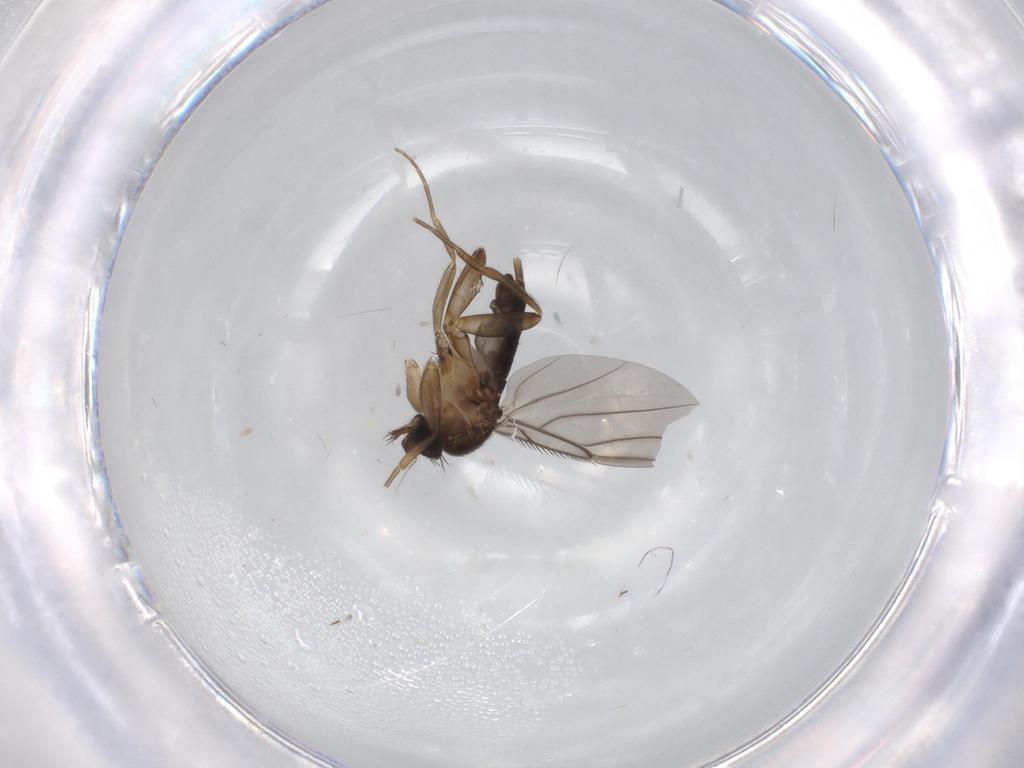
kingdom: Animalia
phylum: Arthropoda
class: Insecta
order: Diptera
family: Phoridae
